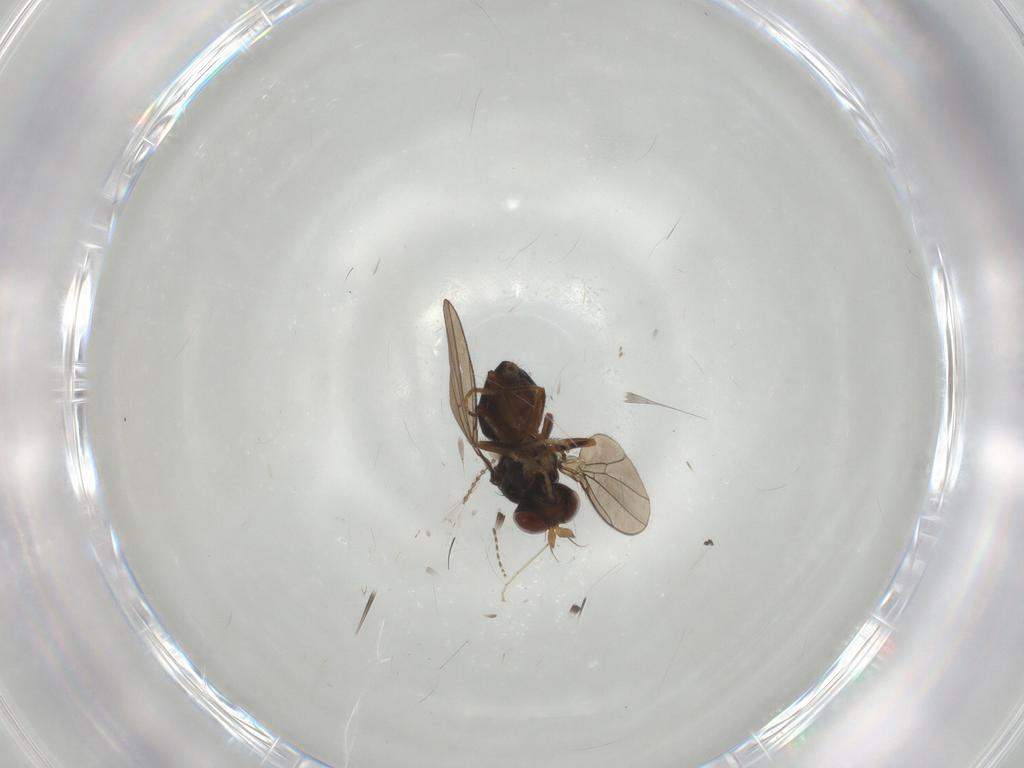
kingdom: Animalia
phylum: Arthropoda
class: Insecta
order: Diptera
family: Ephydridae
